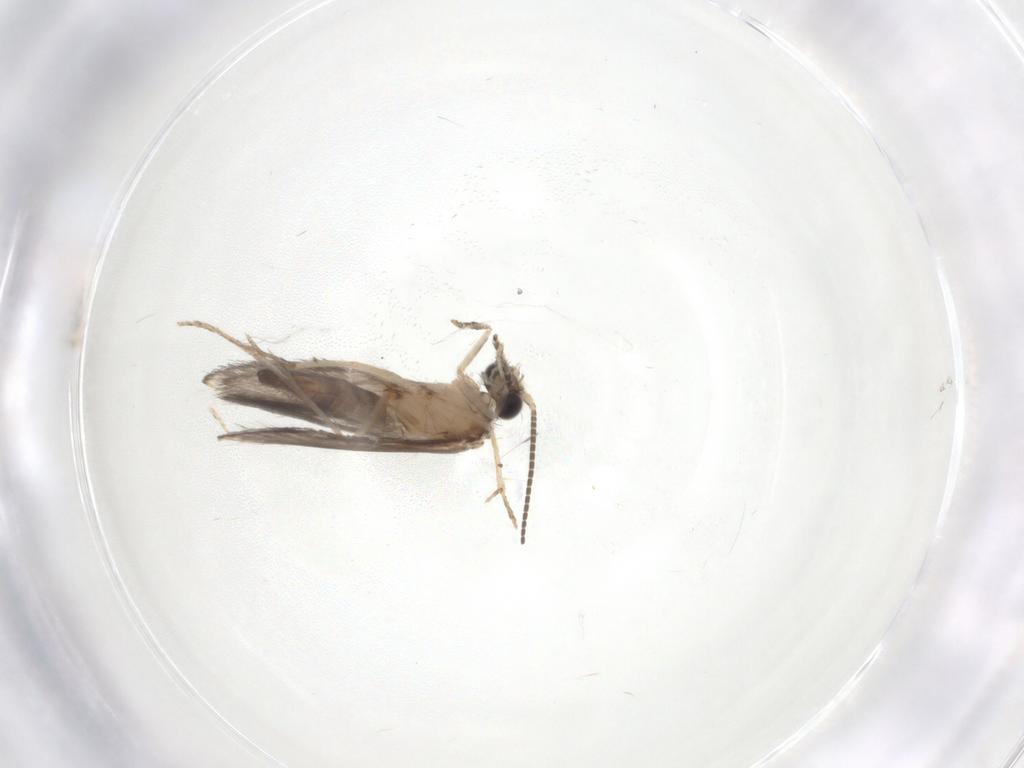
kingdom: Animalia
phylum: Arthropoda
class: Insecta
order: Trichoptera
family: Hydroptilidae
